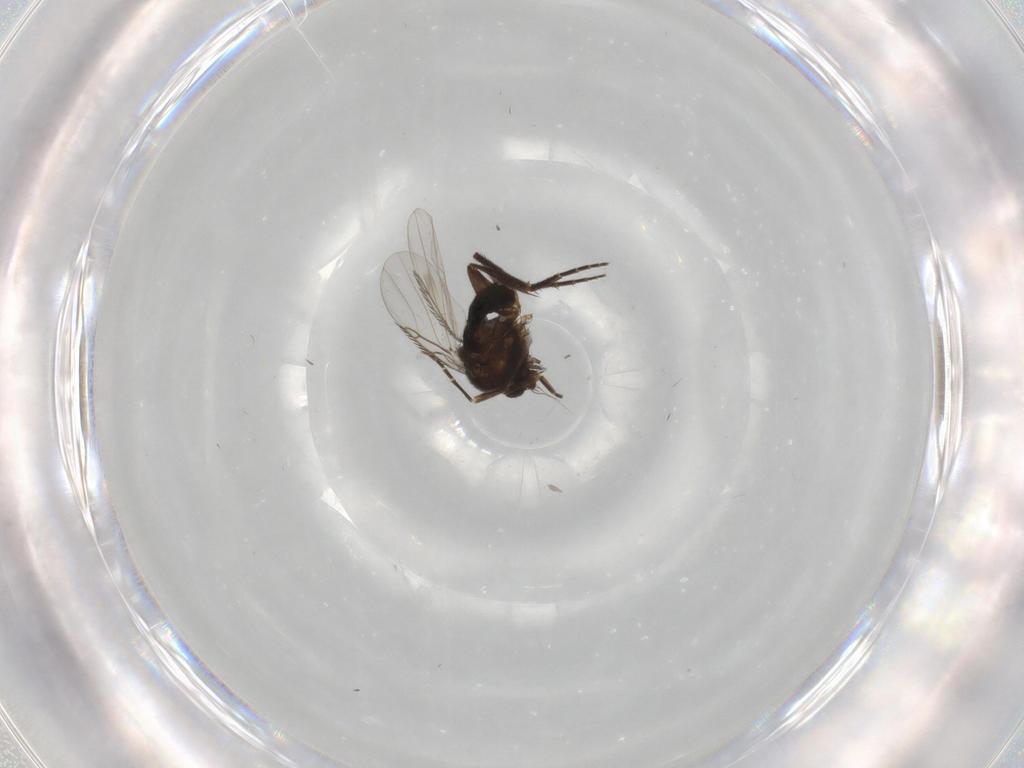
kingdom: Animalia
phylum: Arthropoda
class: Insecta
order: Diptera
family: Phoridae
